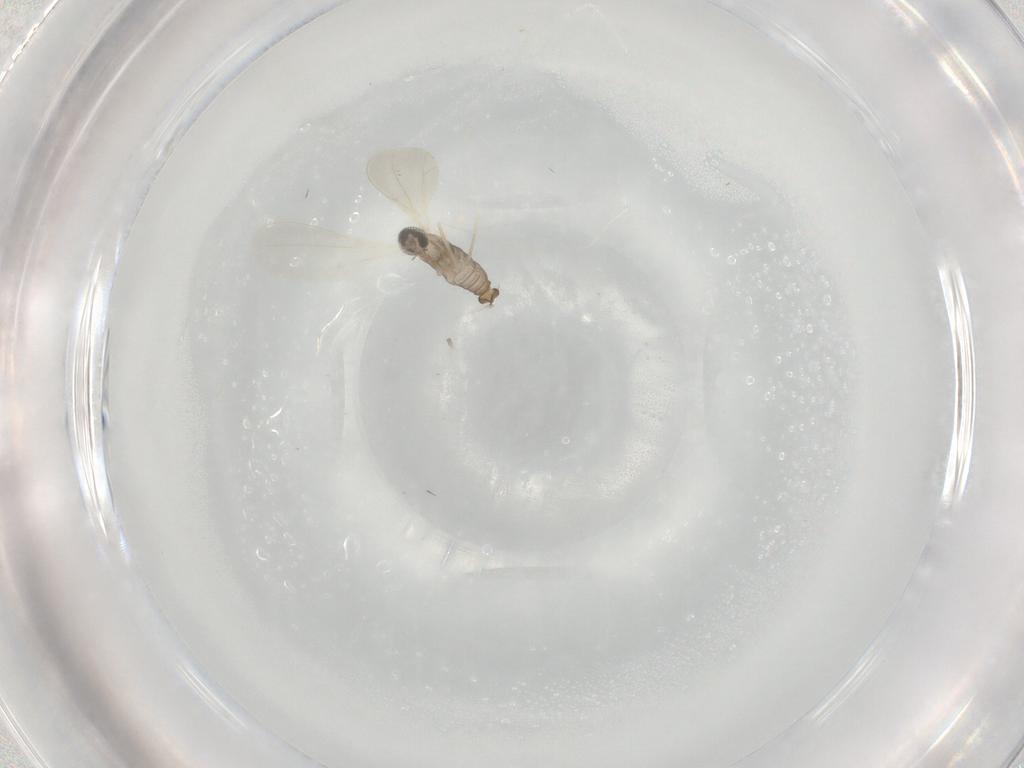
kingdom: Animalia
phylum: Arthropoda
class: Insecta
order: Diptera
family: Cecidomyiidae
